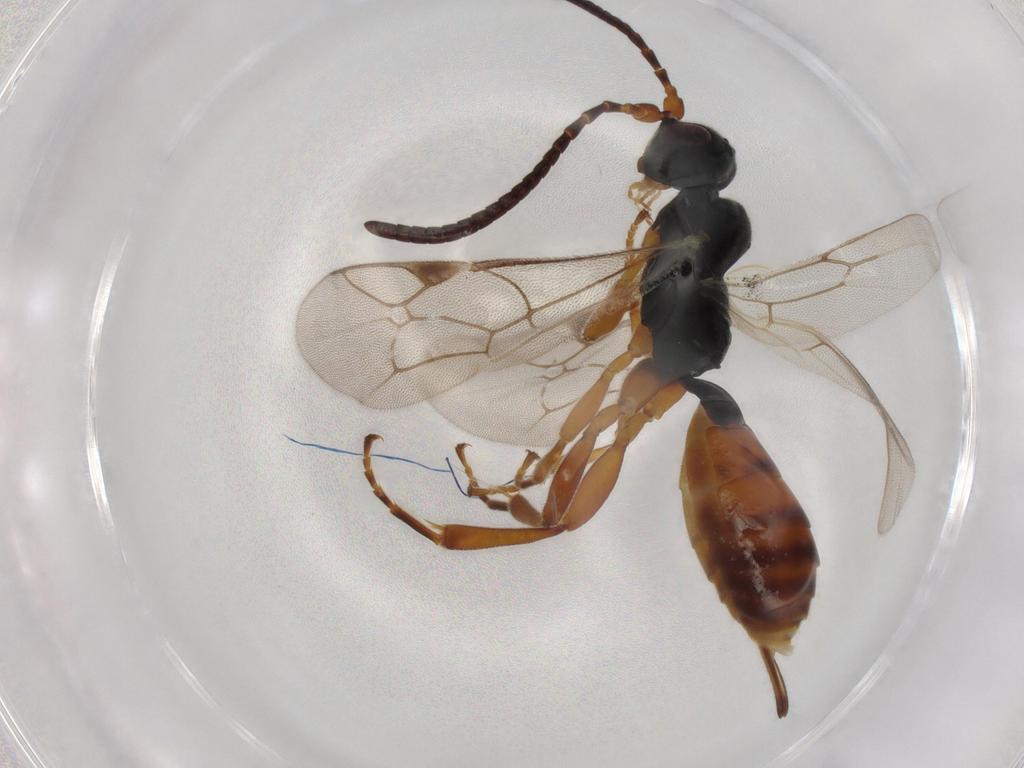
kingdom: Animalia
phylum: Arthropoda
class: Insecta
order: Hymenoptera
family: Ichneumonidae
